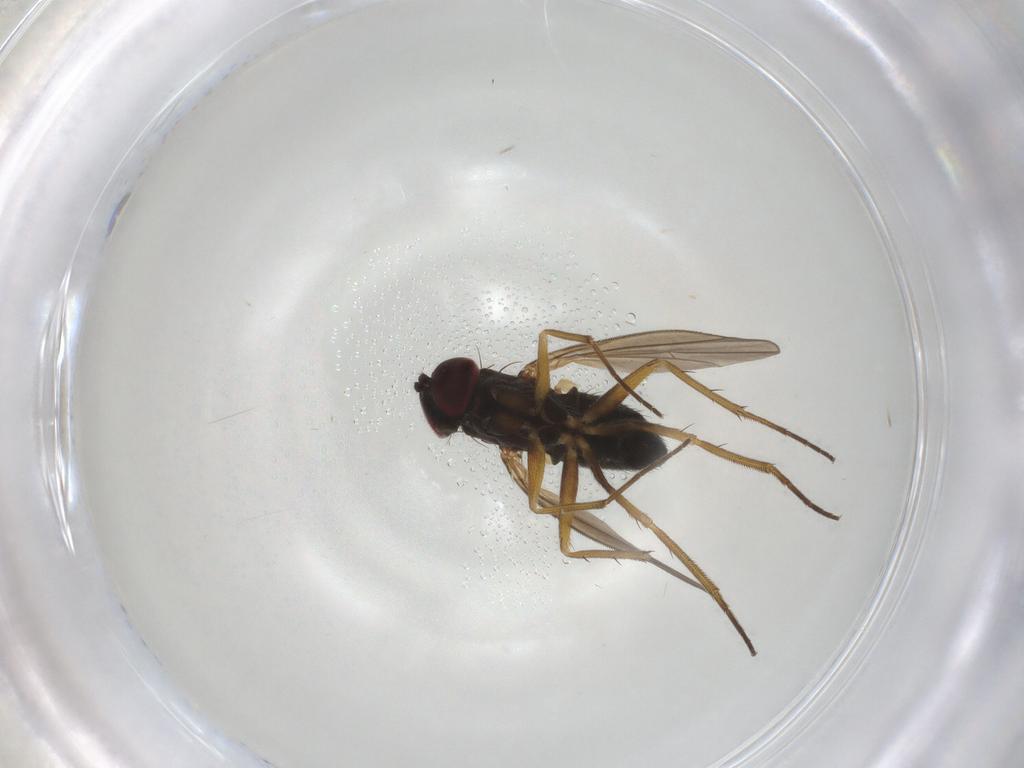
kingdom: Animalia
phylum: Arthropoda
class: Insecta
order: Diptera
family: Dolichopodidae
